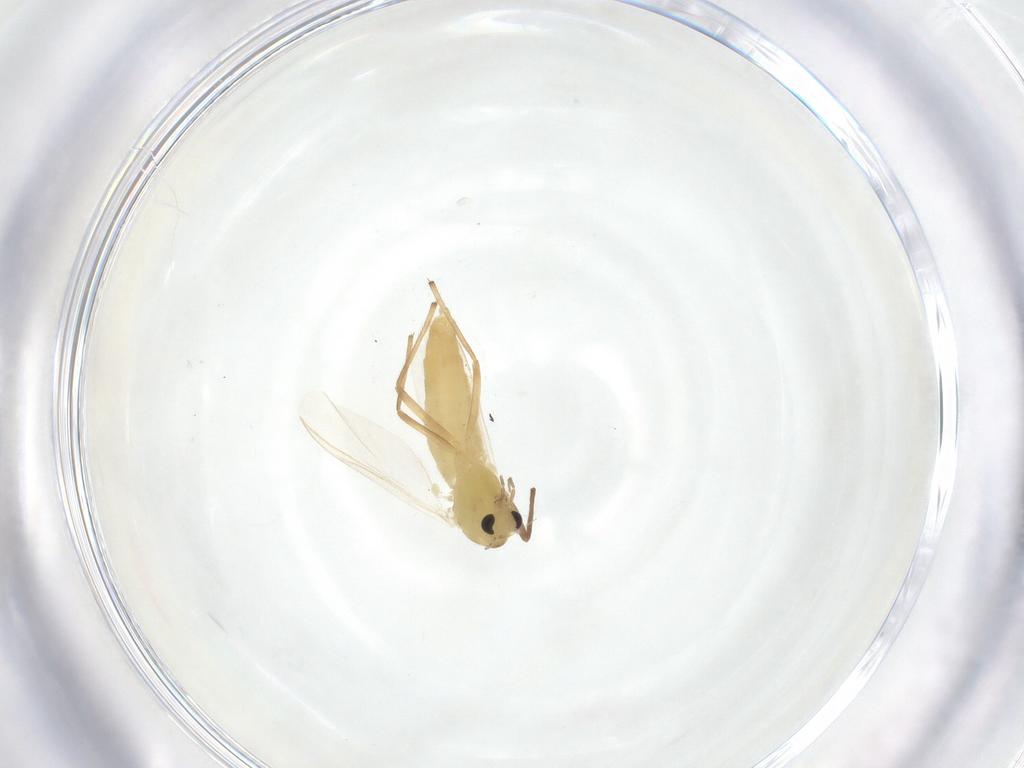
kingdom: Animalia
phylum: Arthropoda
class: Insecta
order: Diptera
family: Chironomidae
